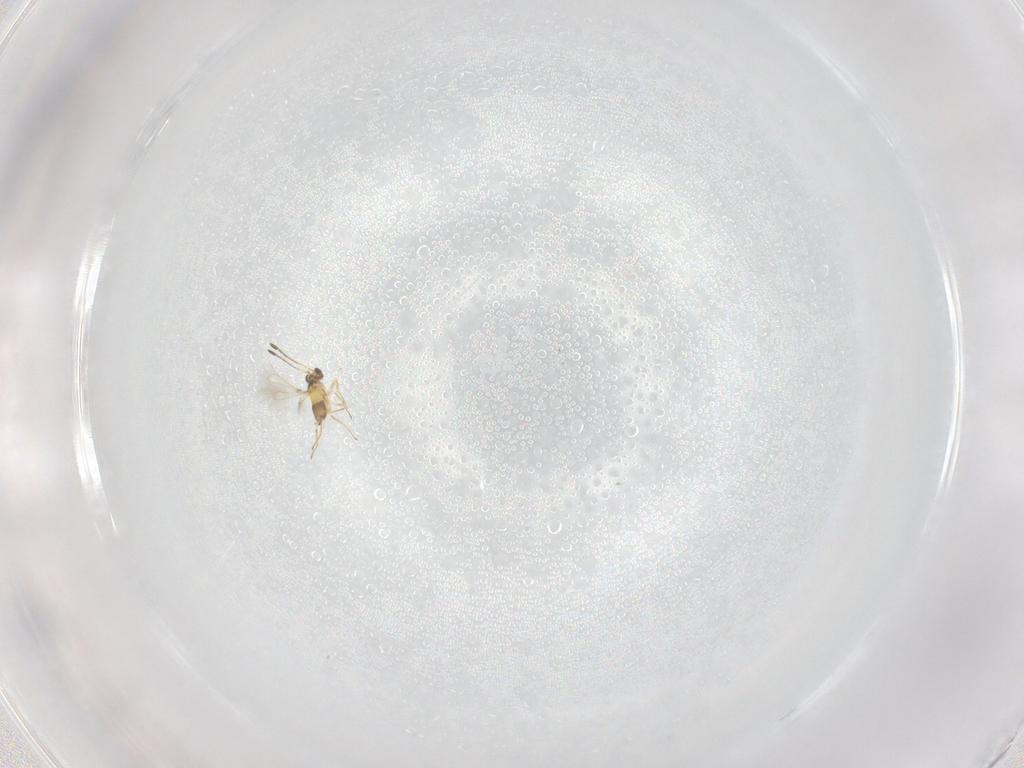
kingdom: Animalia
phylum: Arthropoda
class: Insecta
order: Hymenoptera
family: Mymaridae
